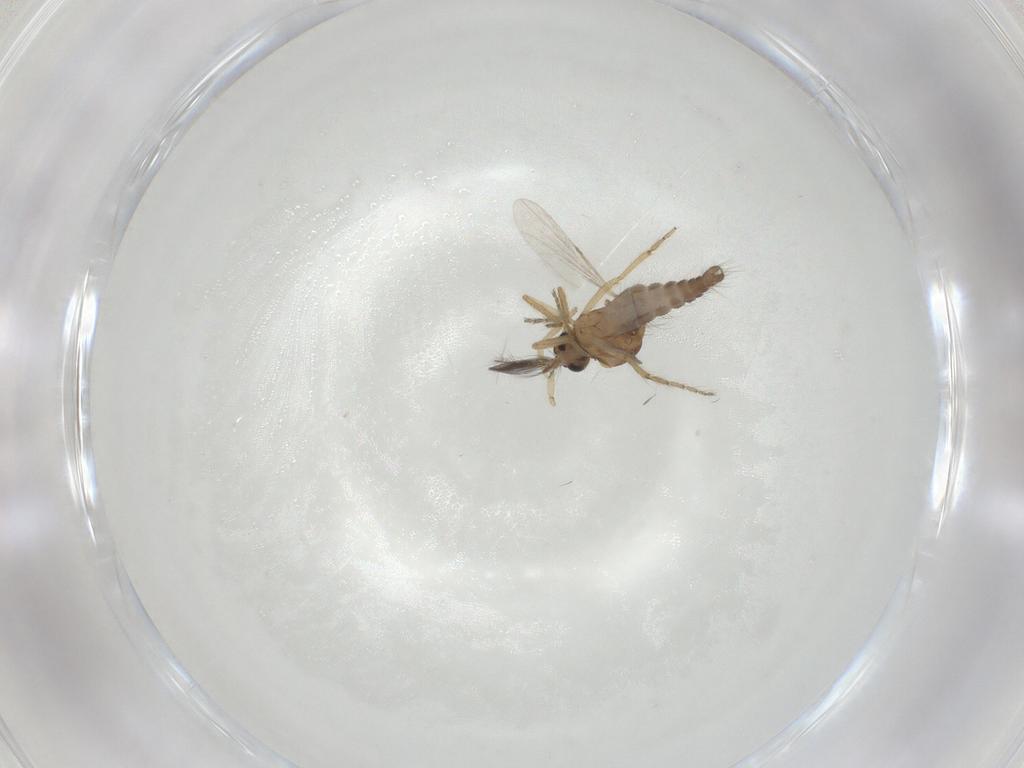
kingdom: Animalia
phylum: Arthropoda
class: Insecta
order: Diptera
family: Ceratopogonidae
